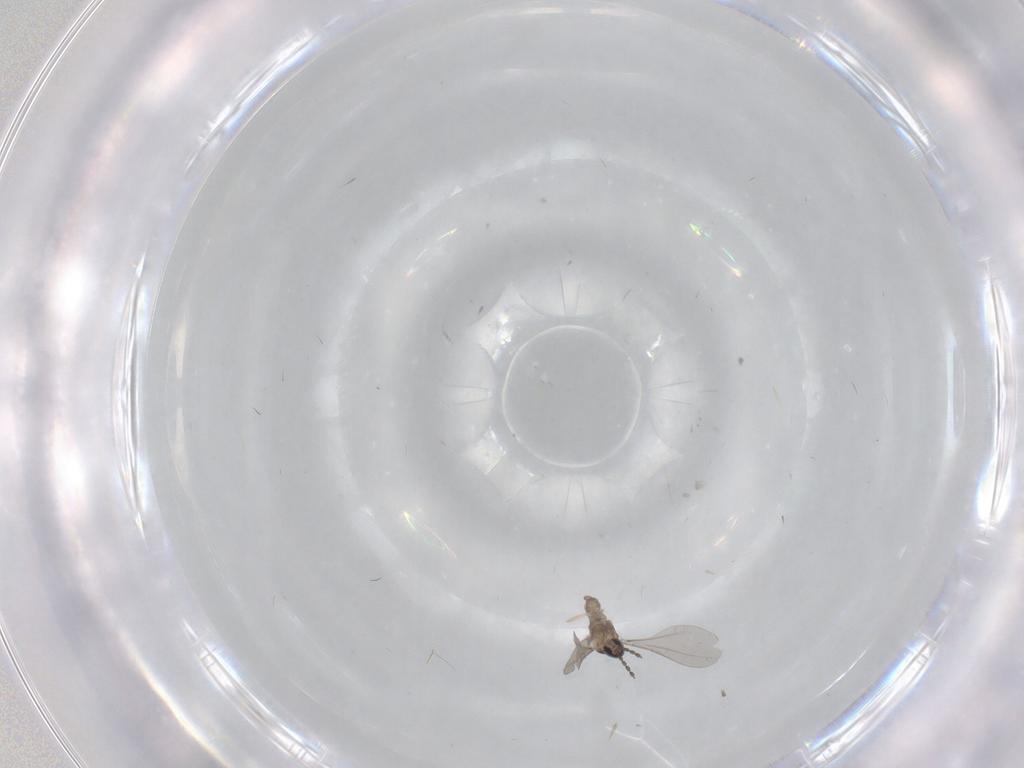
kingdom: Animalia
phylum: Arthropoda
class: Insecta
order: Diptera
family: Cecidomyiidae
